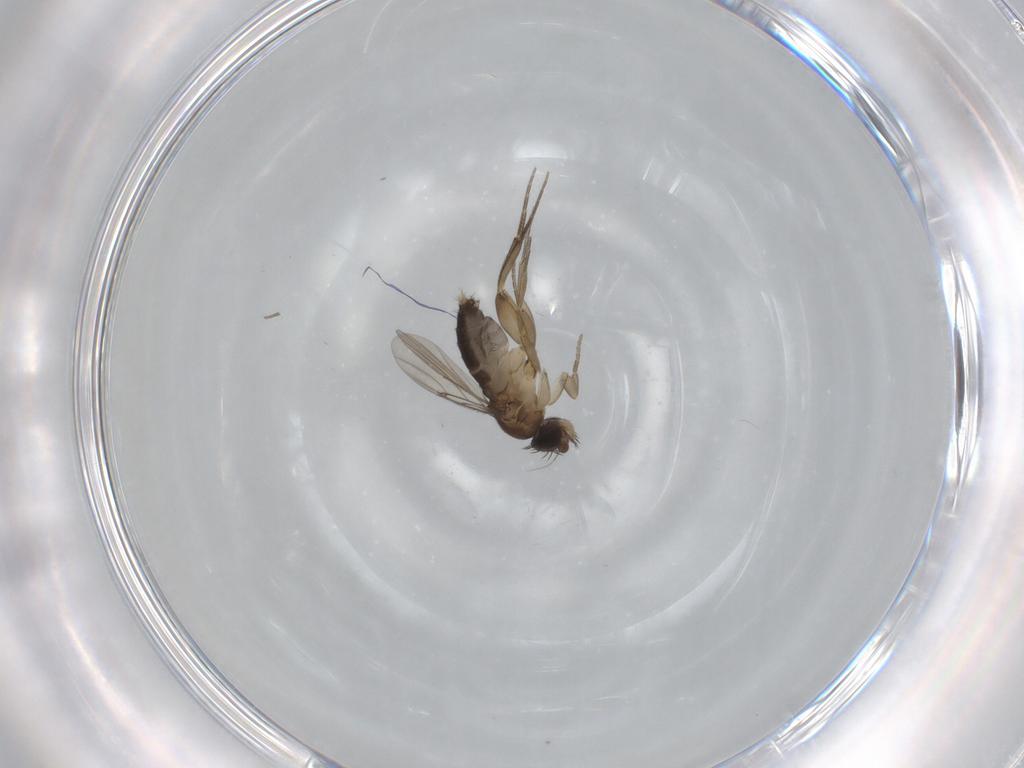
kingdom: Animalia
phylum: Arthropoda
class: Insecta
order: Diptera
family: Phoridae
